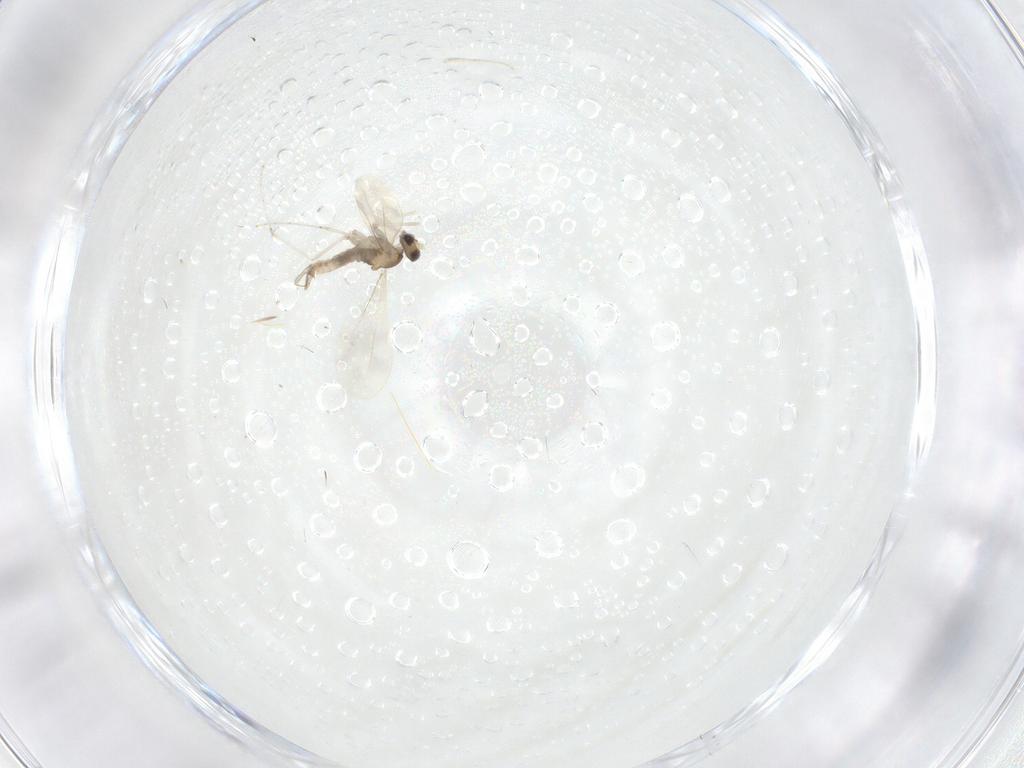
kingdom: Animalia
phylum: Arthropoda
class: Insecta
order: Diptera
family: Cecidomyiidae
